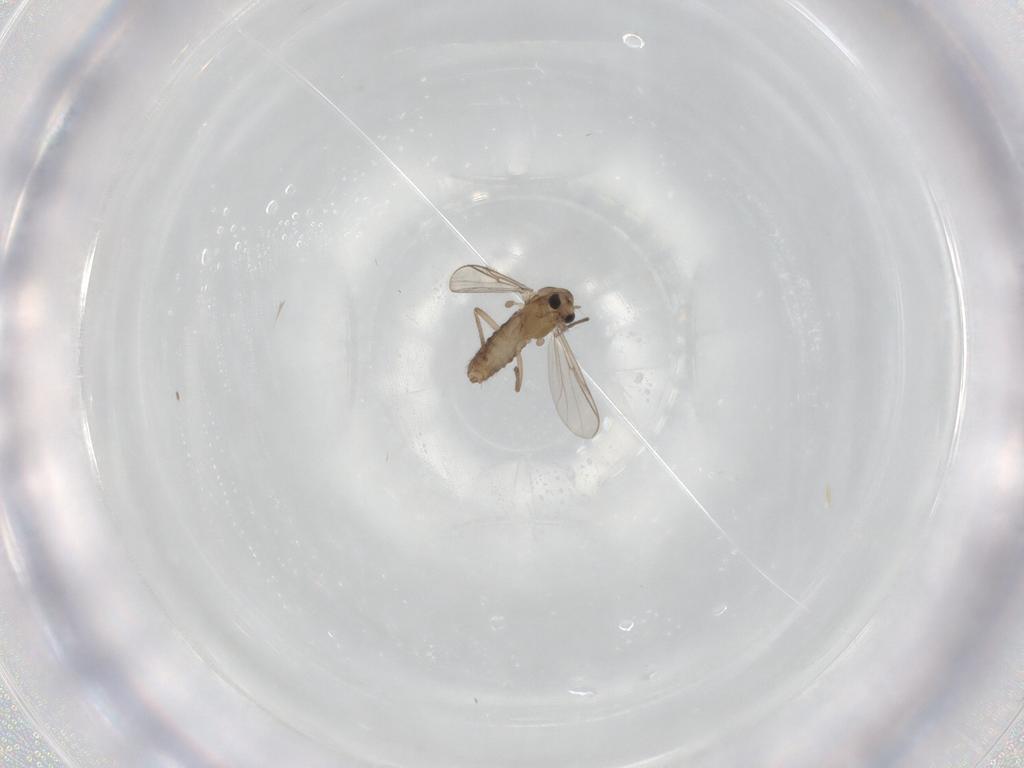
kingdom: Animalia
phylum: Arthropoda
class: Insecta
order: Diptera
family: Chironomidae
